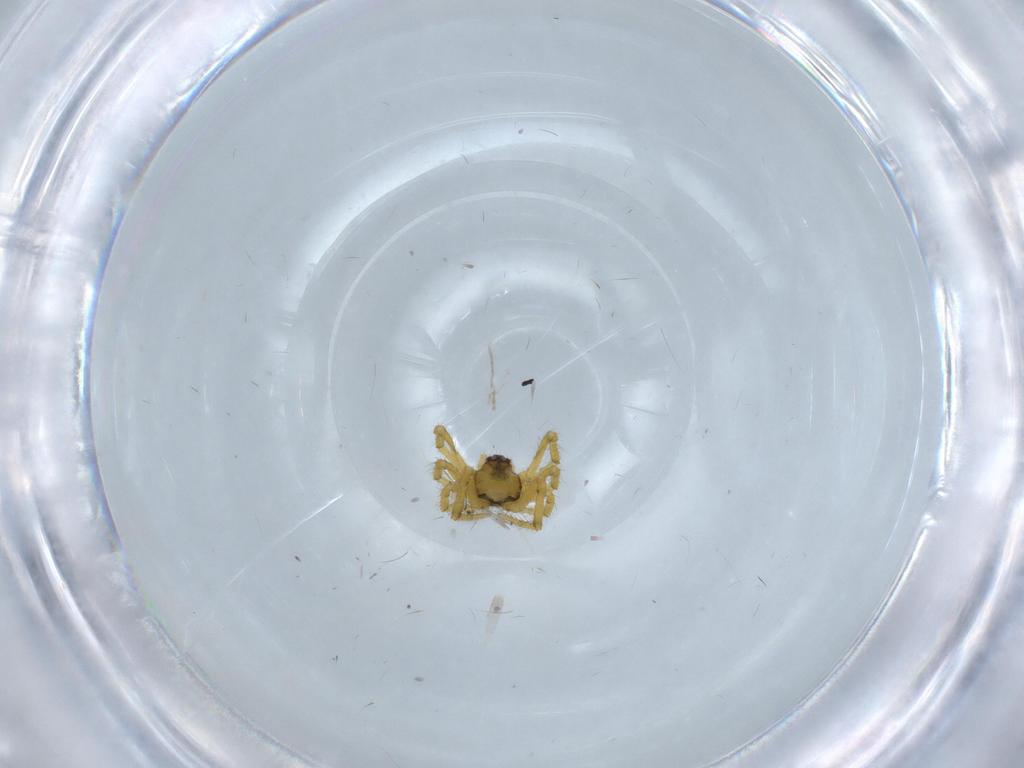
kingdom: Animalia
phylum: Arthropoda
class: Arachnida
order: Araneae
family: Theridiidae
